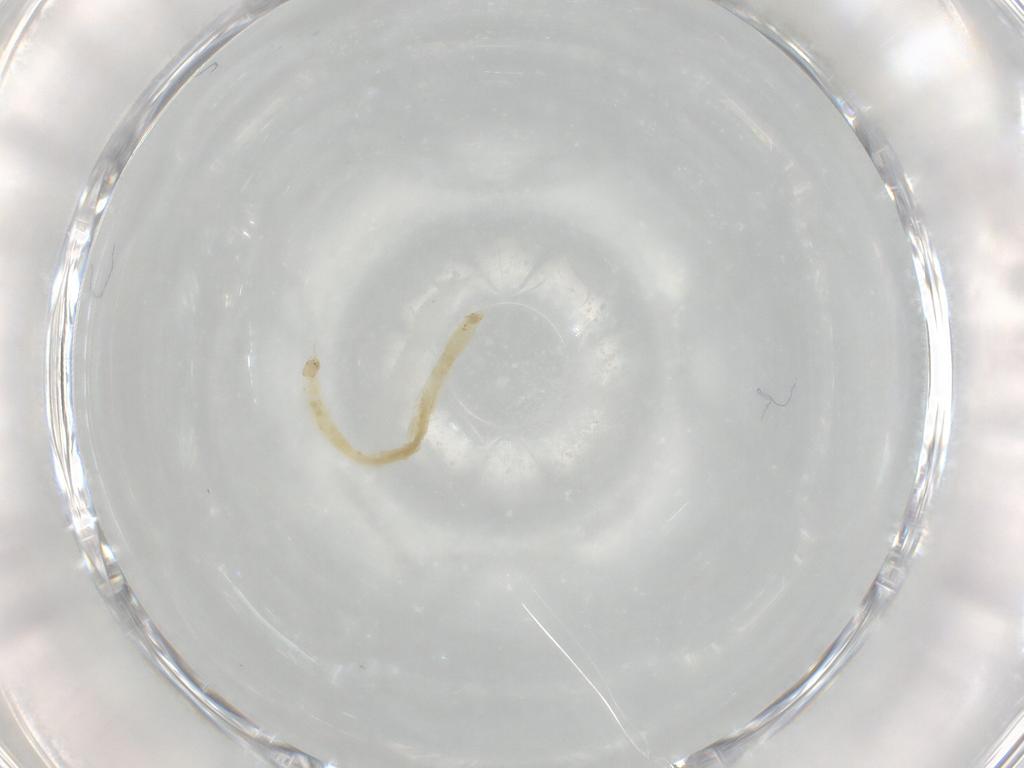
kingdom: Animalia
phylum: Arthropoda
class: Insecta
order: Diptera
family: Chironomidae
